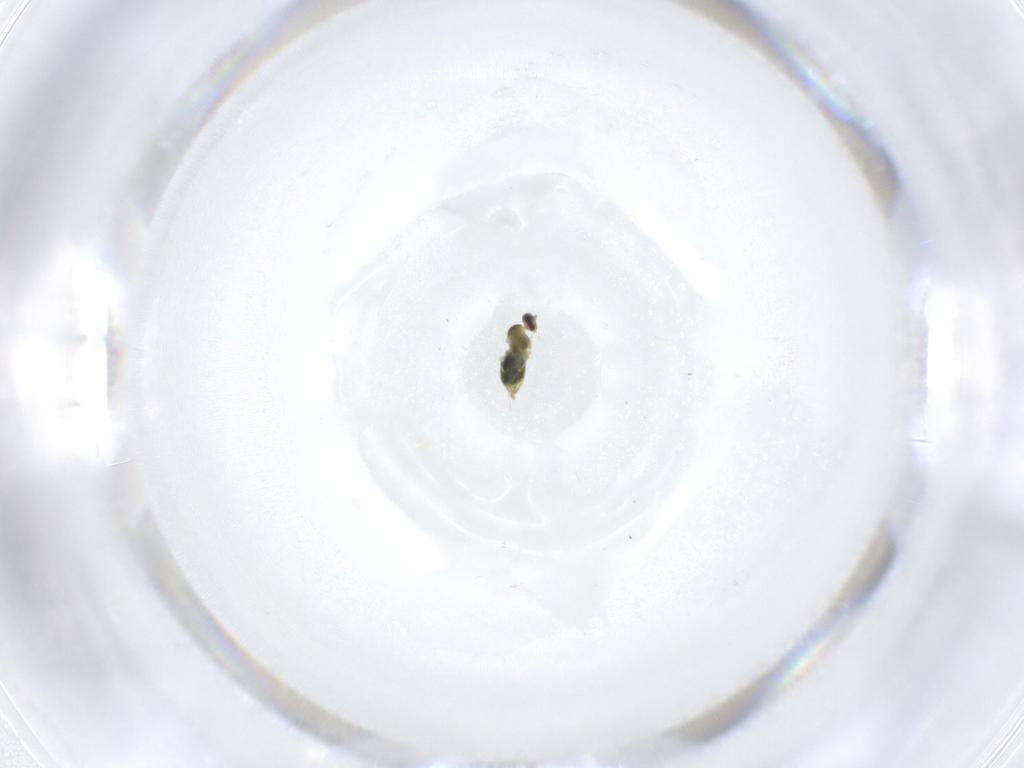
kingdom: Animalia
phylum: Arthropoda
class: Insecta
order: Diptera
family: Cecidomyiidae
